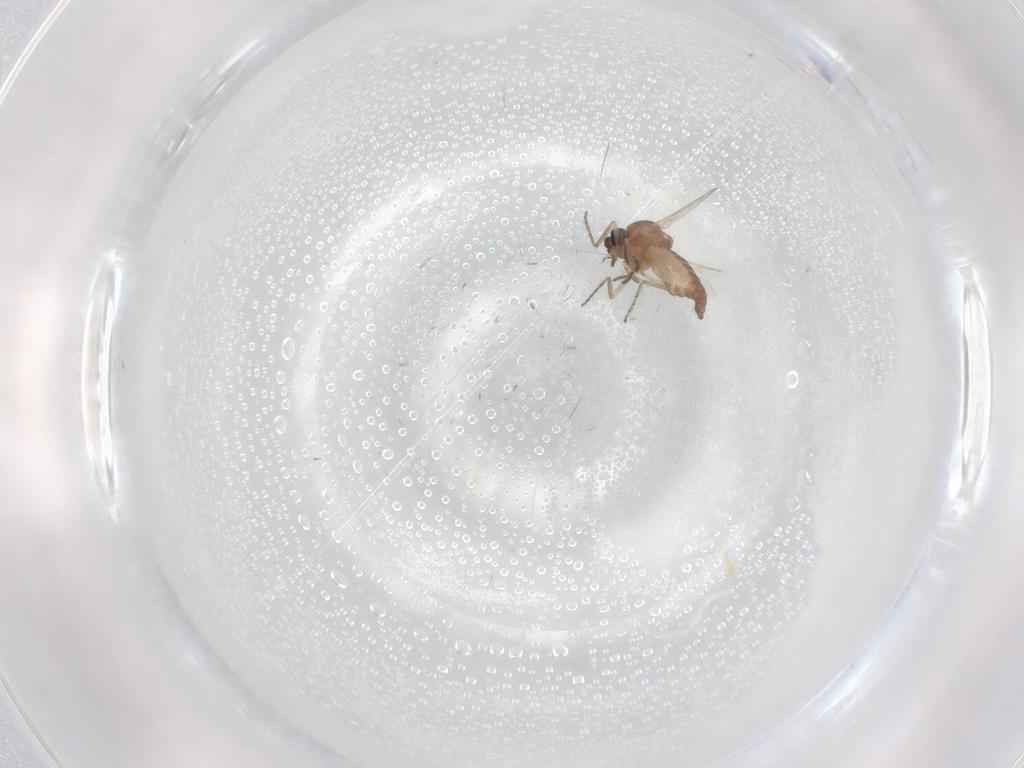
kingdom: Animalia
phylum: Arthropoda
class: Insecta
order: Diptera
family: Ceratopogonidae
